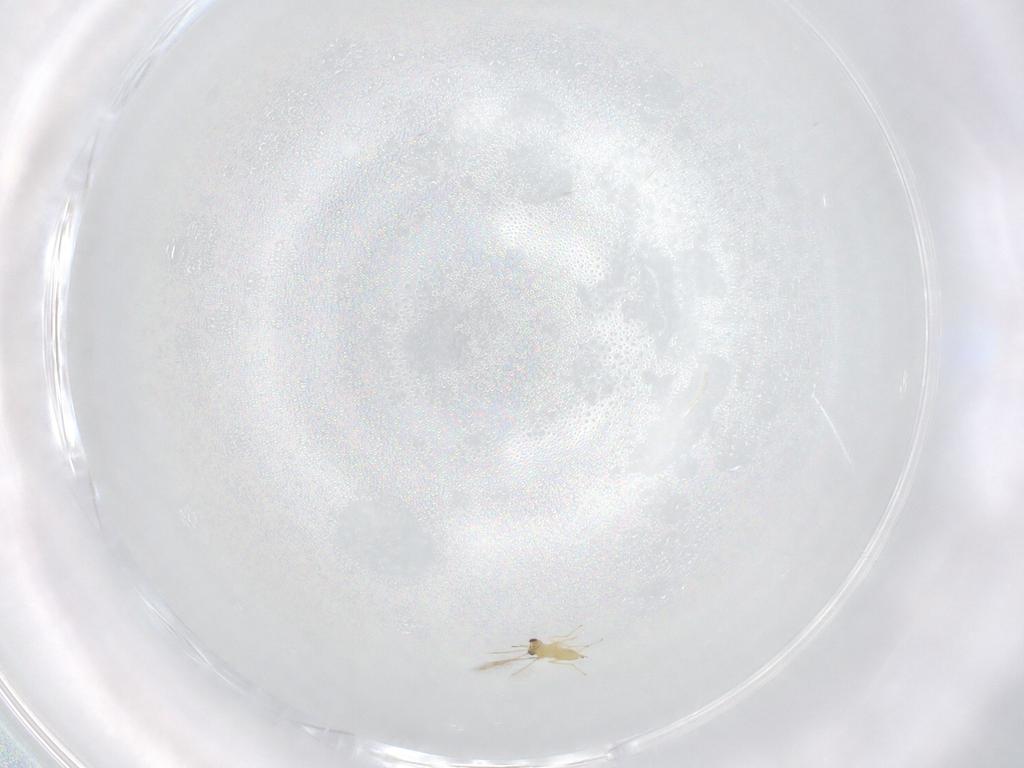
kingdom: Animalia
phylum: Arthropoda
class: Insecta
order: Hymenoptera
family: Mymaridae
